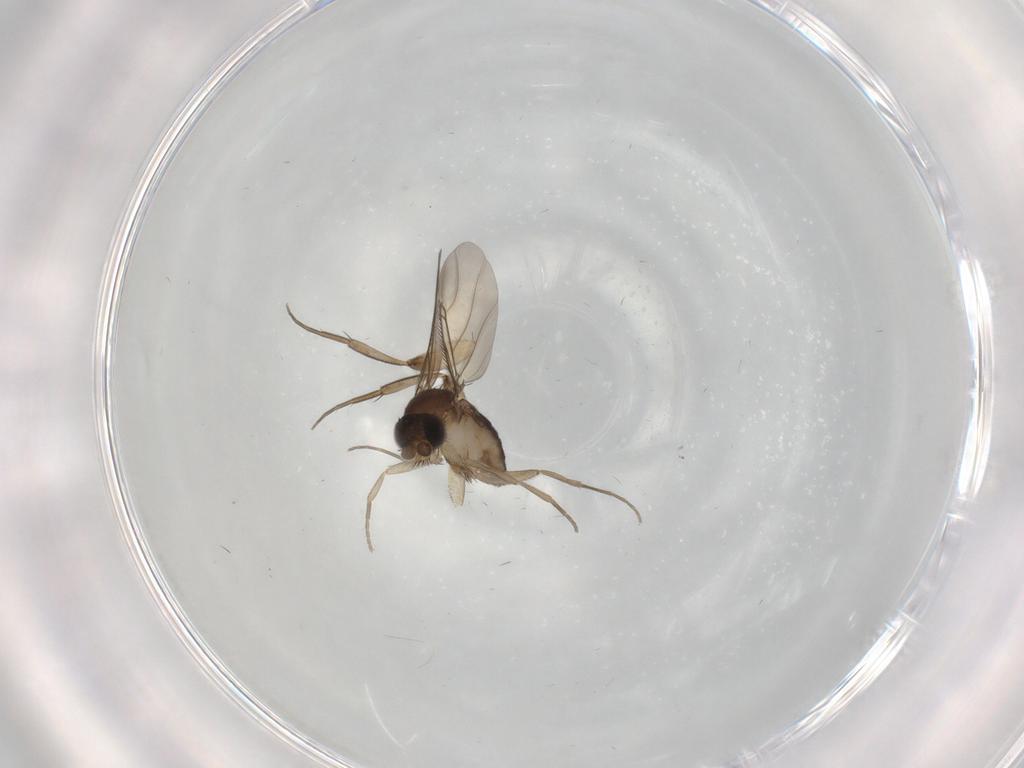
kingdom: Animalia
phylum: Arthropoda
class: Insecta
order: Diptera
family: Phoridae
